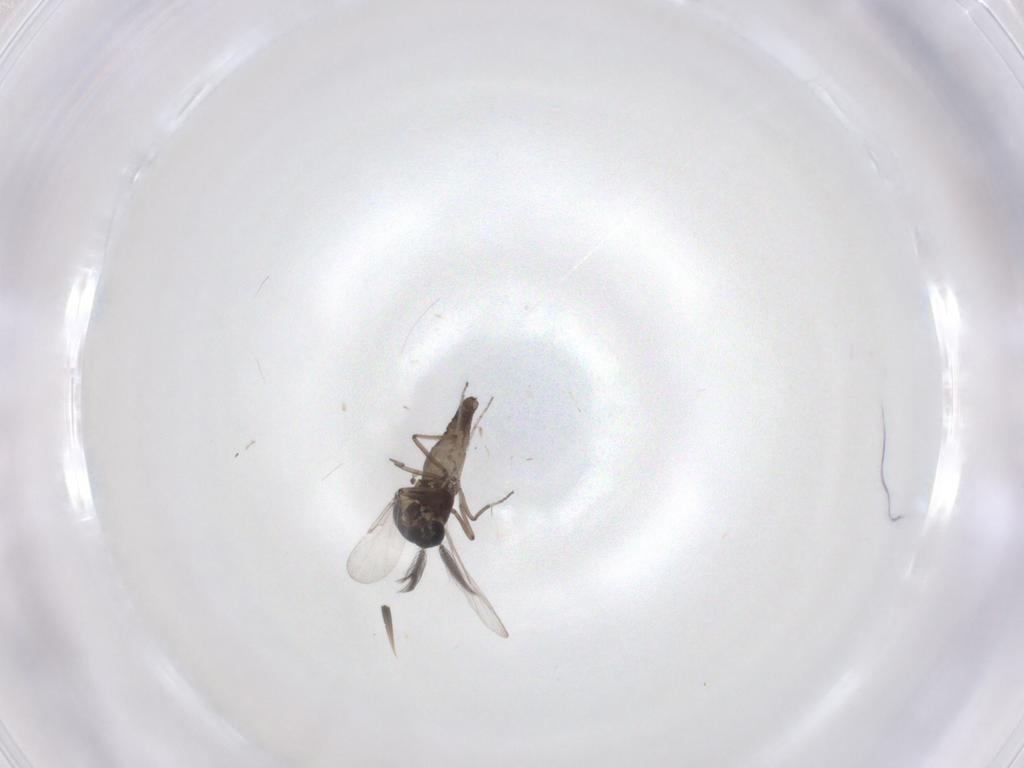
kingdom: Animalia
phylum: Arthropoda
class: Insecta
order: Diptera
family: Ceratopogonidae
